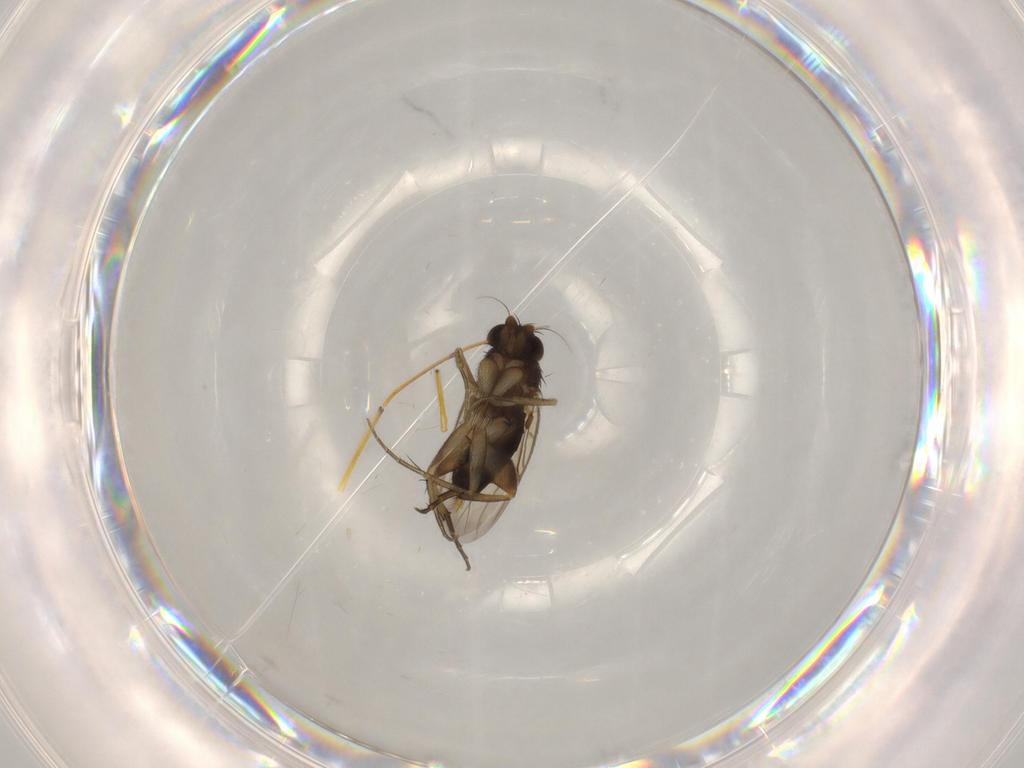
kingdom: Animalia
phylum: Arthropoda
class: Insecta
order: Diptera
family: Phoridae
